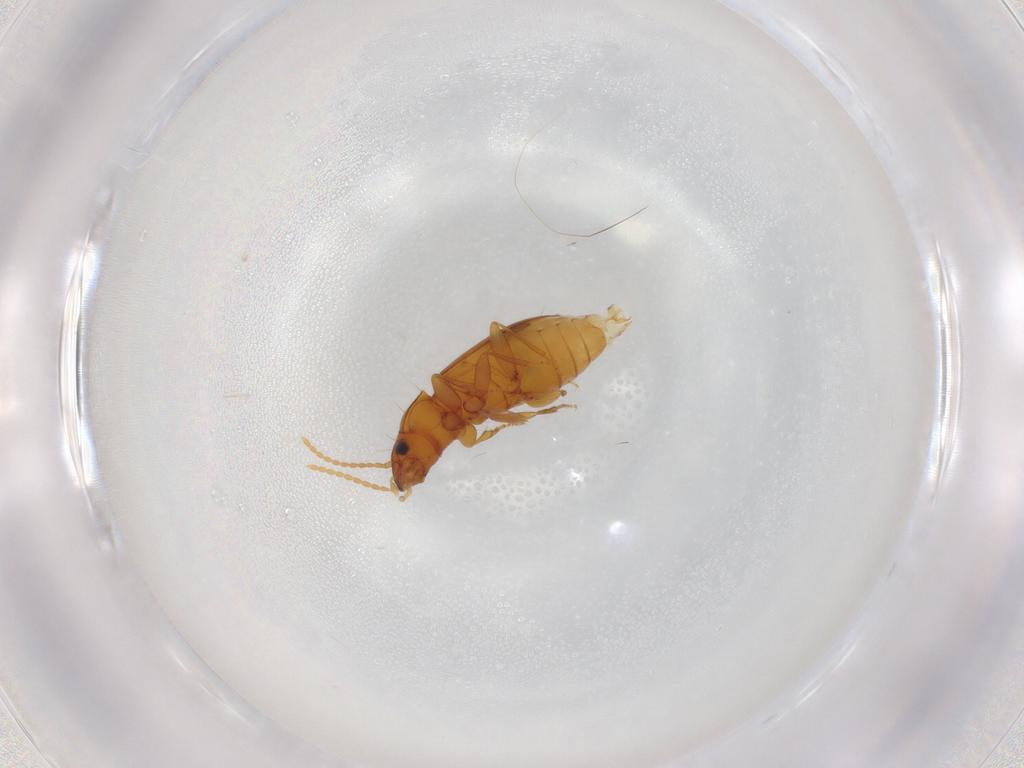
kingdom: Animalia
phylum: Arthropoda
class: Insecta
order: Coleoptera
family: Carabidae
